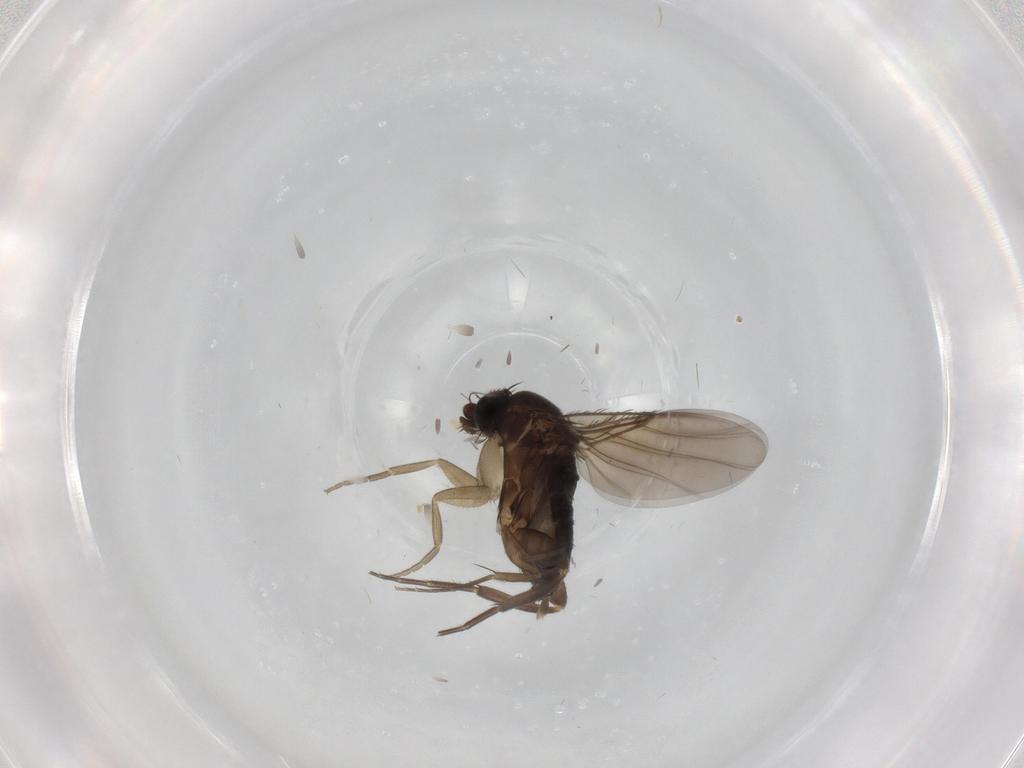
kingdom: Animalia
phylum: Arthropoda
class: Insecta
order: Diptera
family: Phoridae
